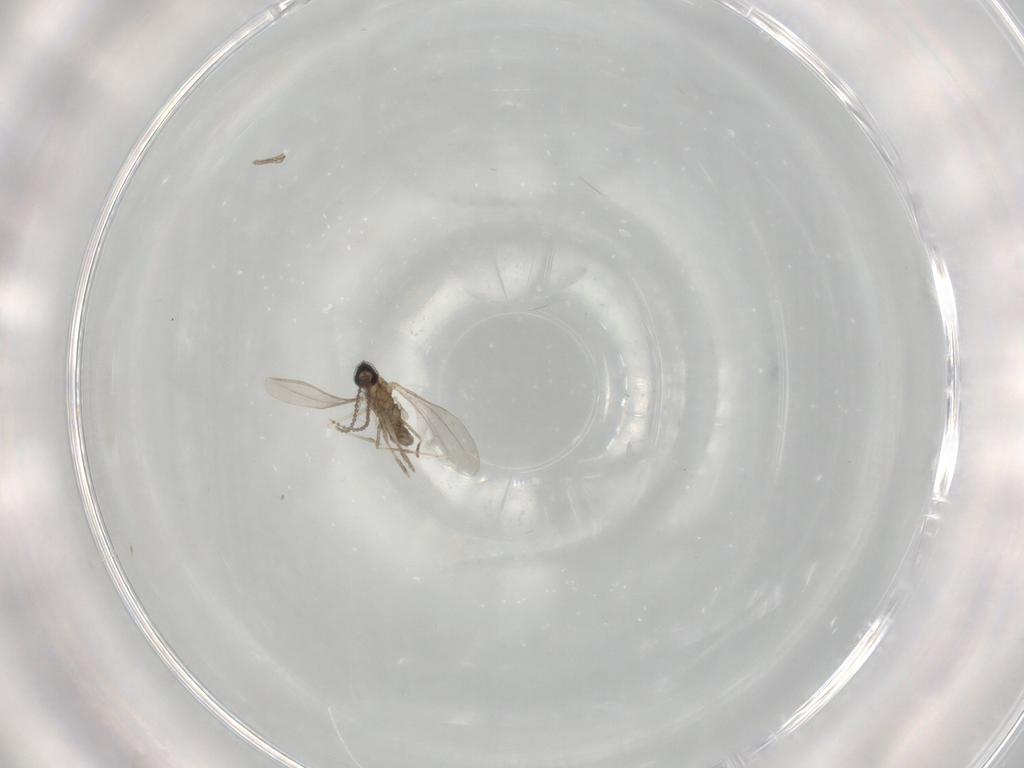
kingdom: Animalia
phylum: Arthropoda
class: Insecta
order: Diptera
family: Cecidomyiidae
